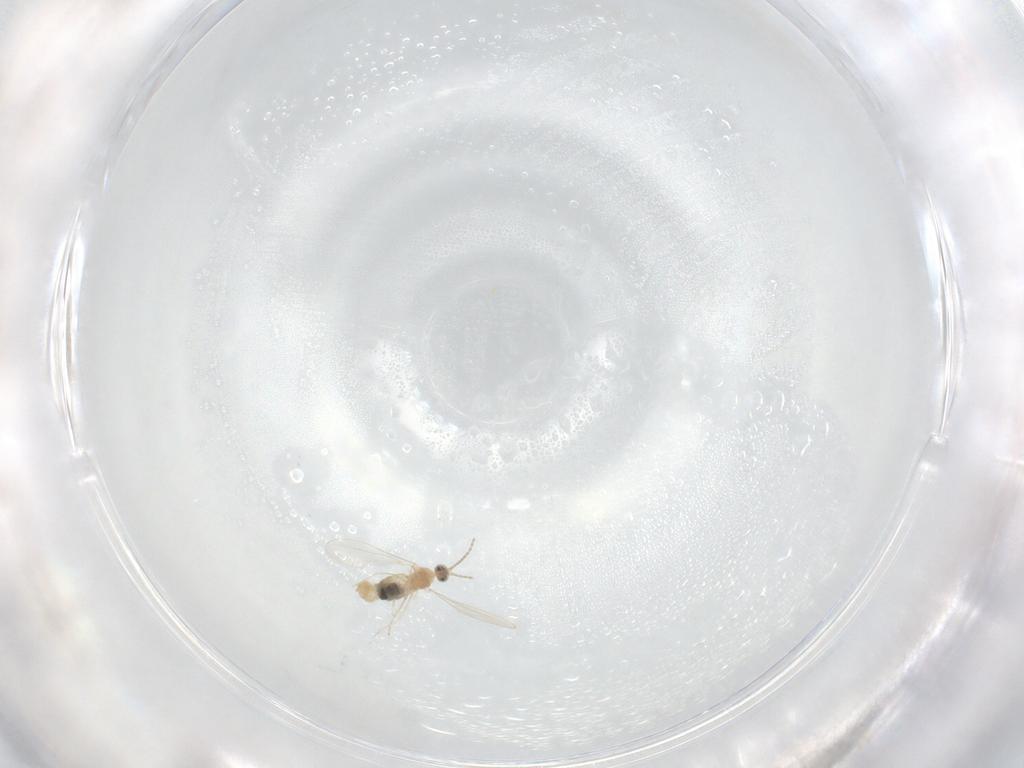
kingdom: Animalia
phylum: Arthropoda
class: Insecta
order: Diptera
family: Cecidomyiidae
